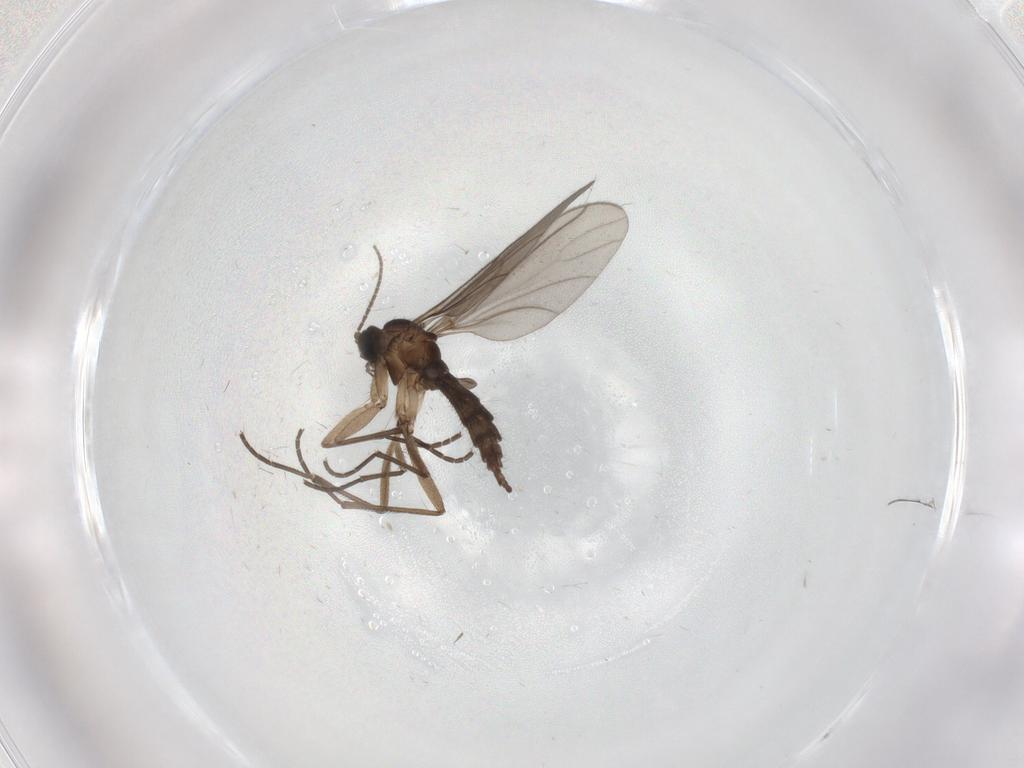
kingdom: Animalia
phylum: Arthropoda
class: Insecta
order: Diptera
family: Chironomidae
